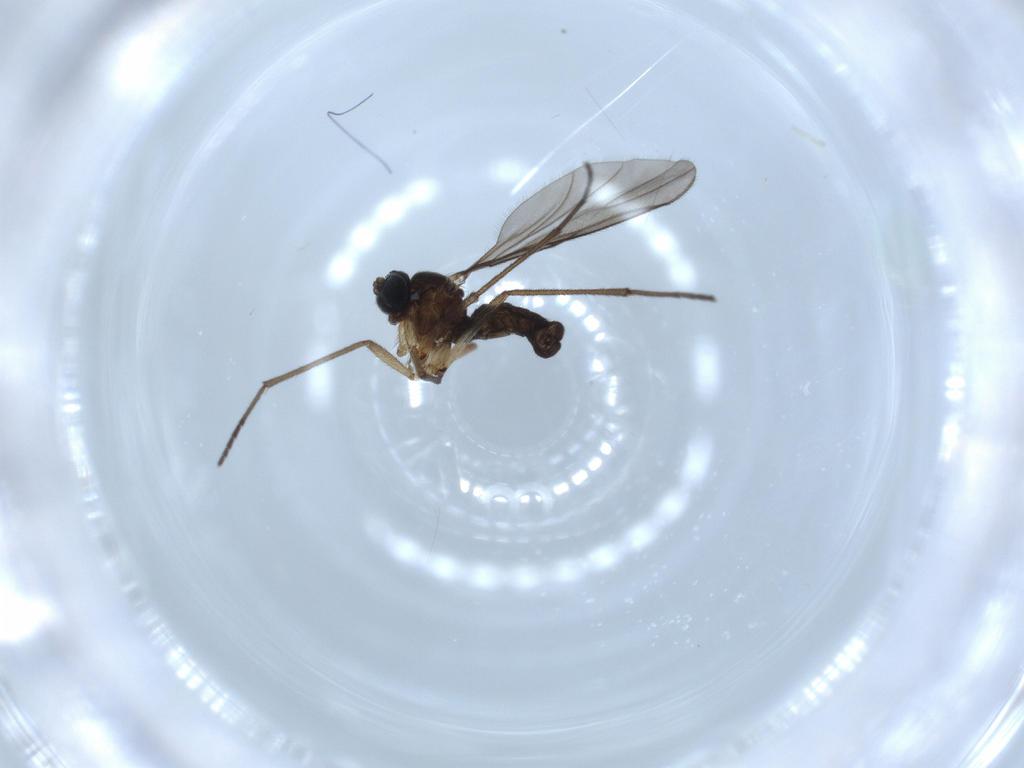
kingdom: Animalia
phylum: Arthropoda
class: Insecta
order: Diptera
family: Sciaridae
